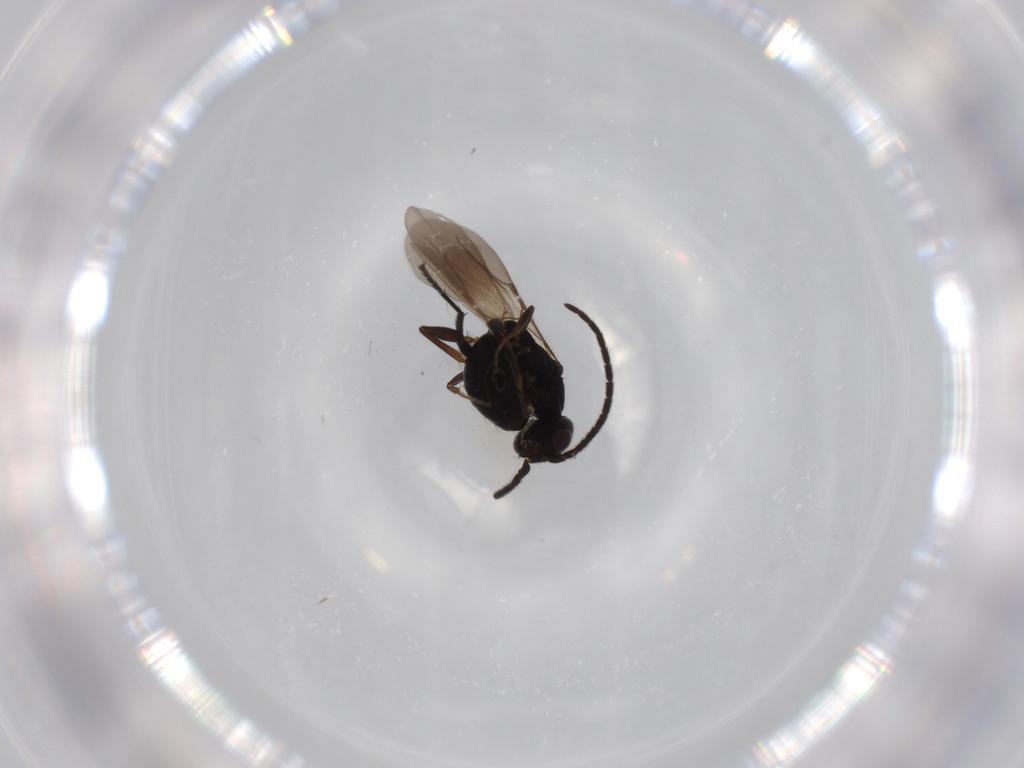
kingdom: Animalia
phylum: Arthropoda
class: Insecta
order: Hymenoptera
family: Bethylidae
